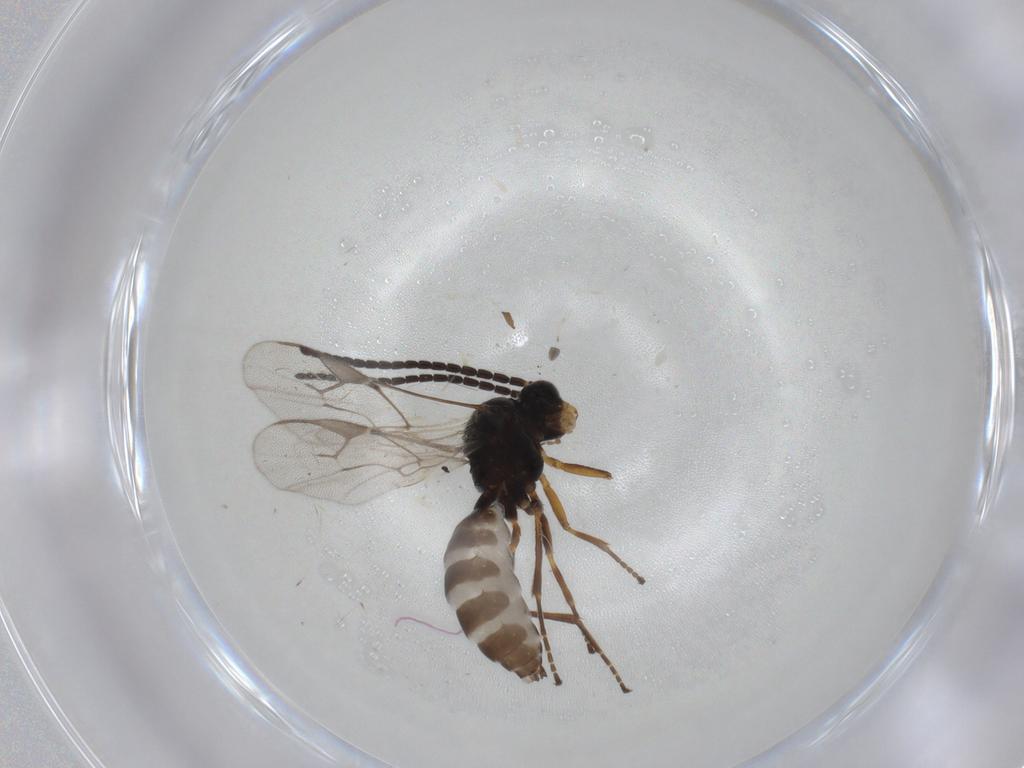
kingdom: Animalia
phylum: Arthropoda
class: Insecta
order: Hymenoptera
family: Braconidae
